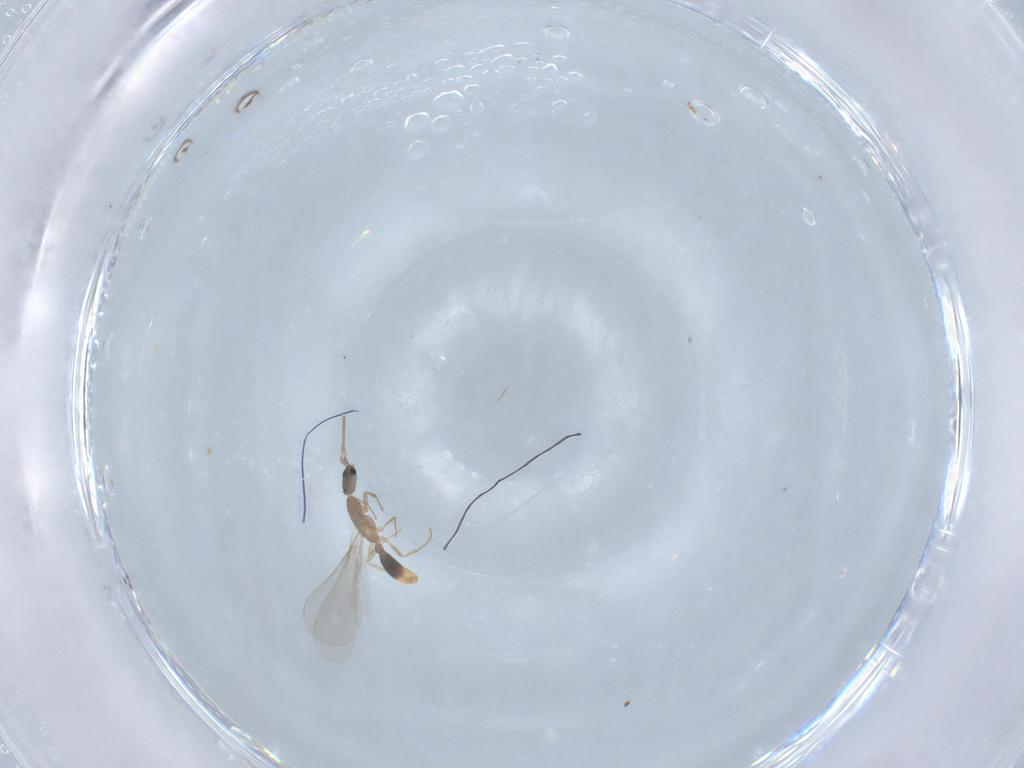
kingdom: Animalia
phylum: Arthropoda
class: Insecta
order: Hymenoptera
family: Formicidae
